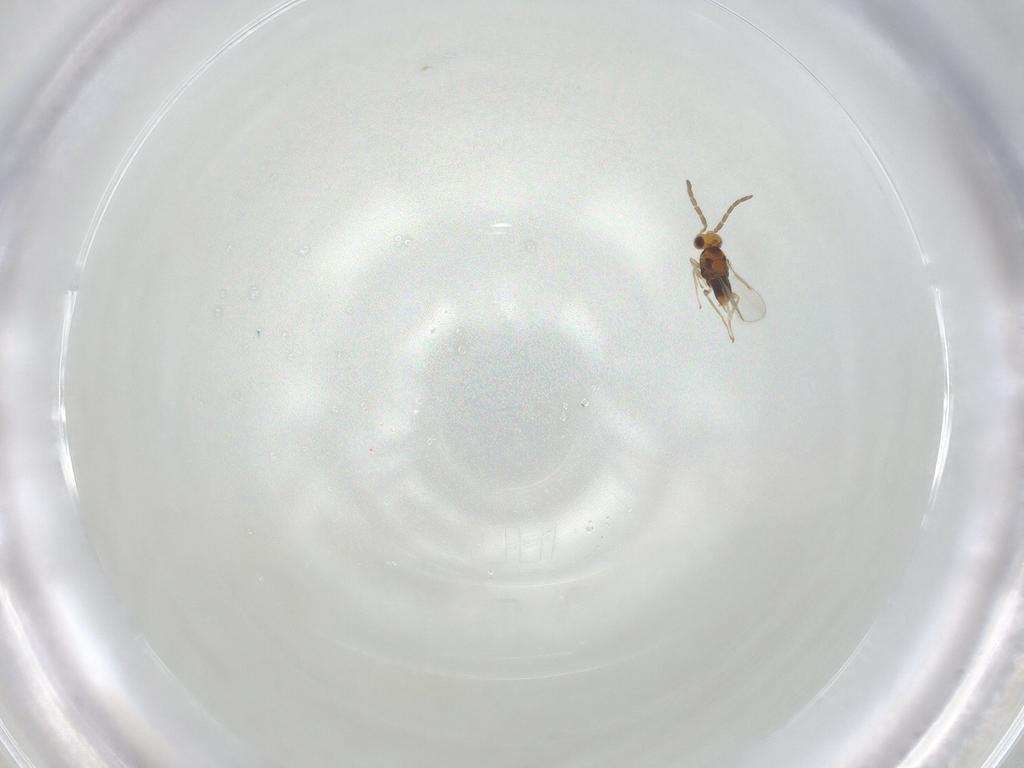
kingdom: Animalia
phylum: Arthropoda
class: Insecta
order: Hymenoptera
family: Aphelinidae
